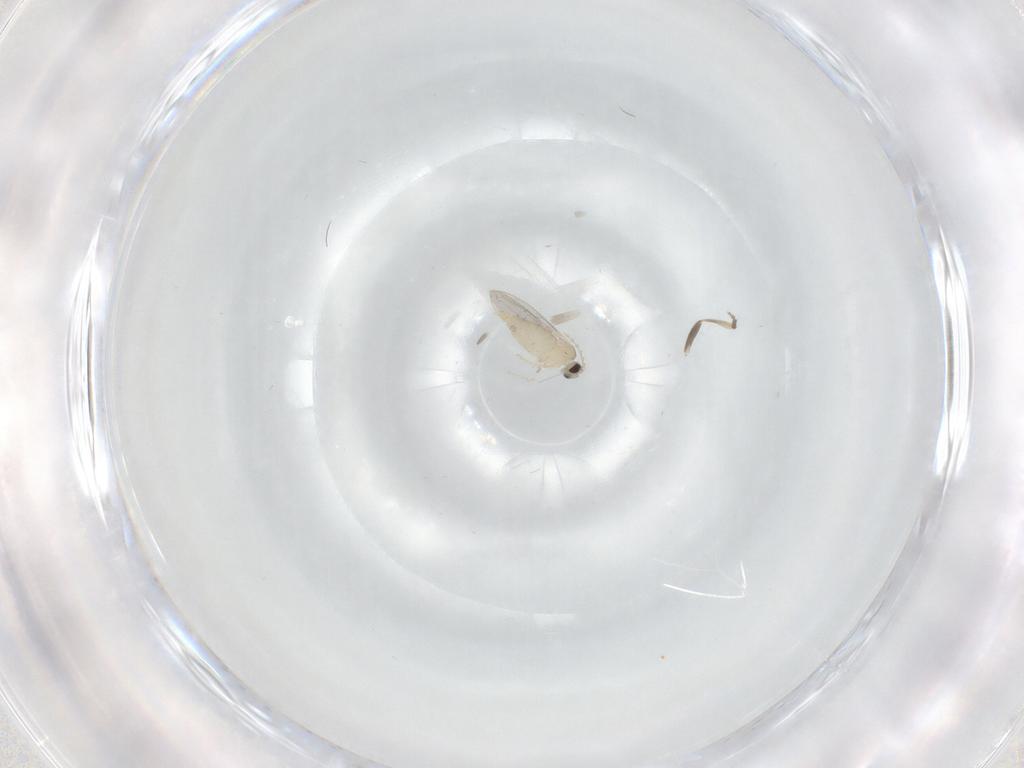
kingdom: Animalia
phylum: Arthropoda
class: Insecta
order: Diptera
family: Cecidomyiidae
